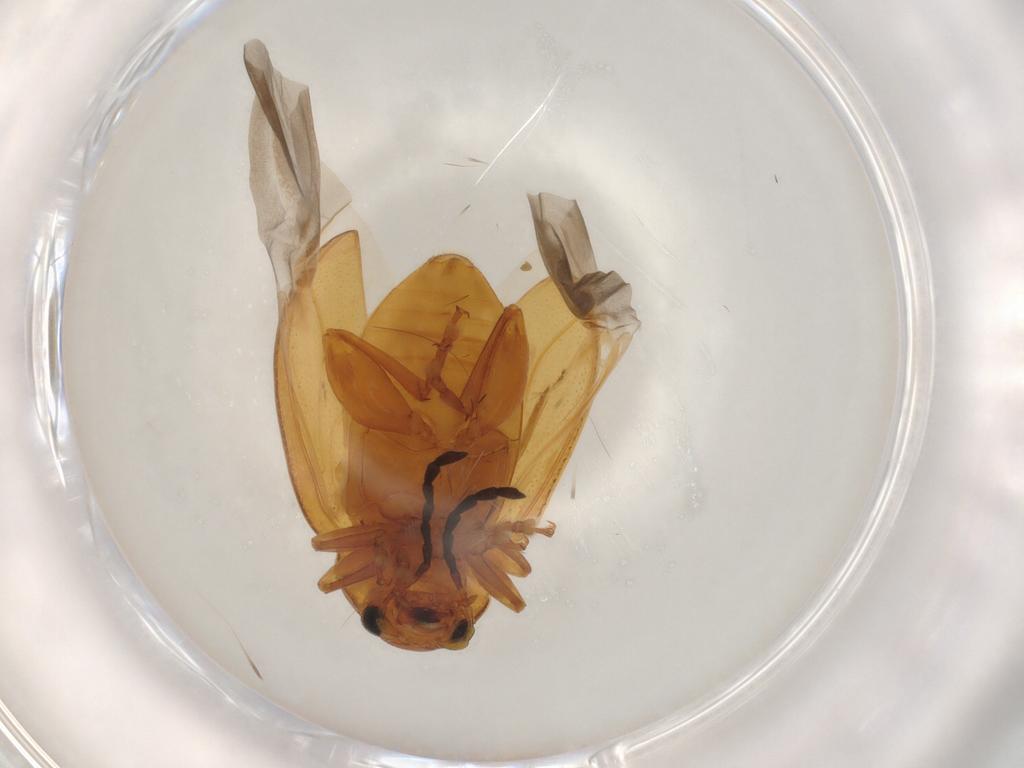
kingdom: Animalia
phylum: Arthropoda
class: Insecta
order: Coleoptera
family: Chrysomelidae
